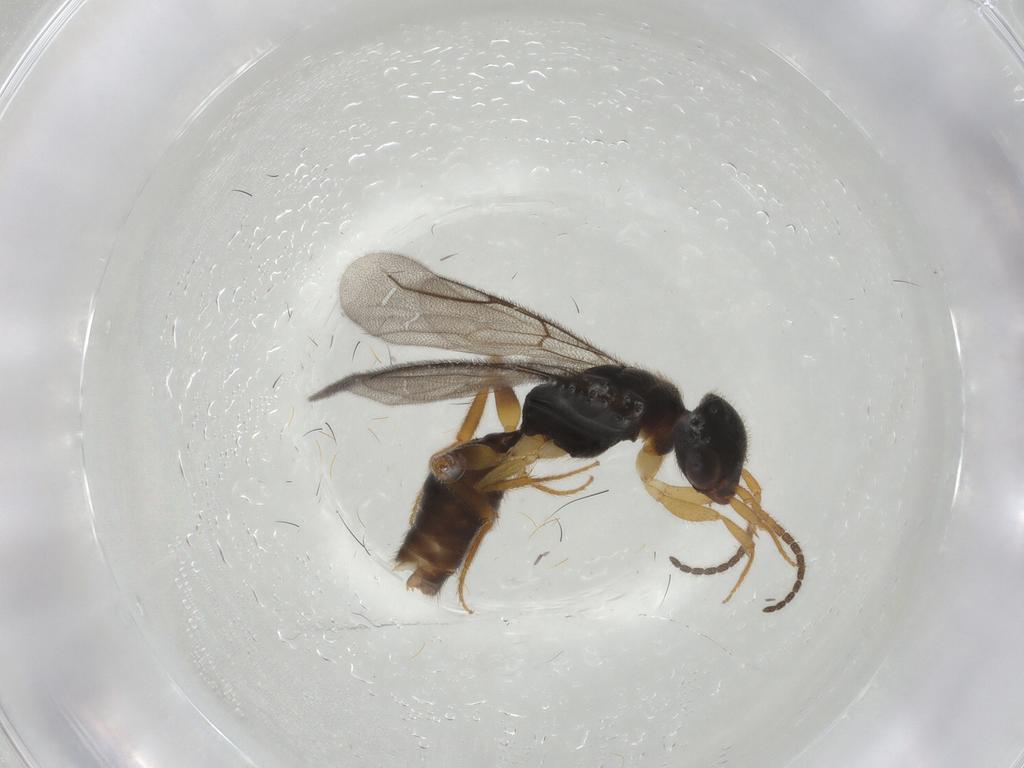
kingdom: Animalia
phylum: Arthropoda
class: Insecta
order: Hymenoptera
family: Bethylidae
